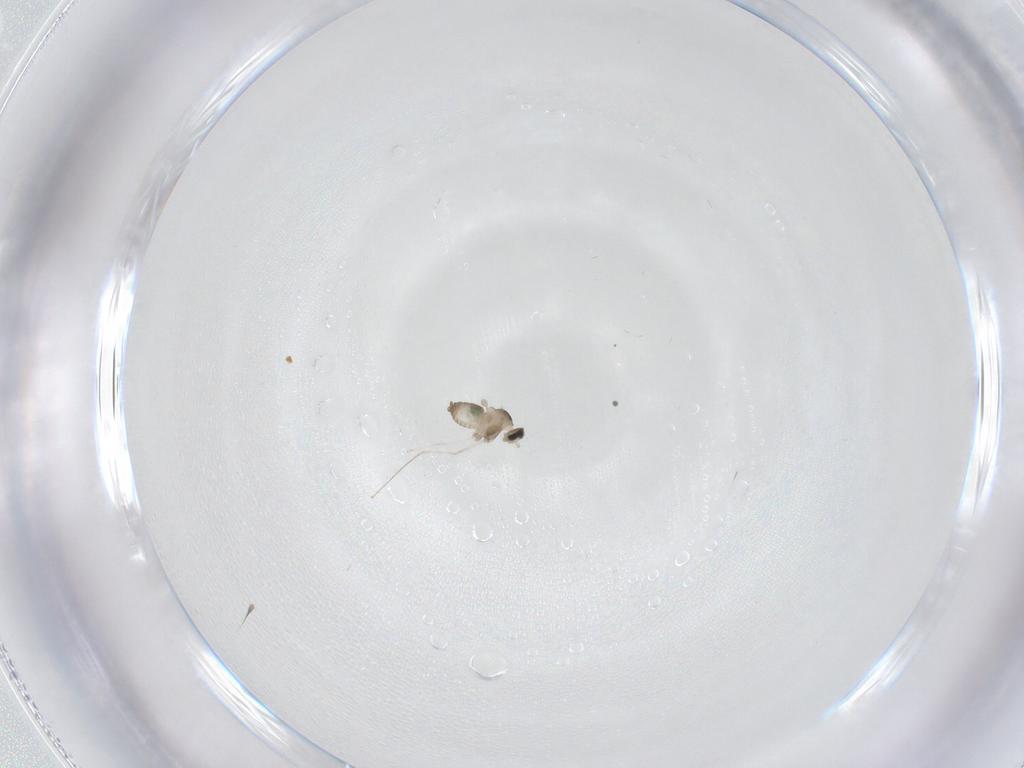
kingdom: Animalia
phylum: Arthropoda
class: Insecta
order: Diptera
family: Cecidomyiidae
